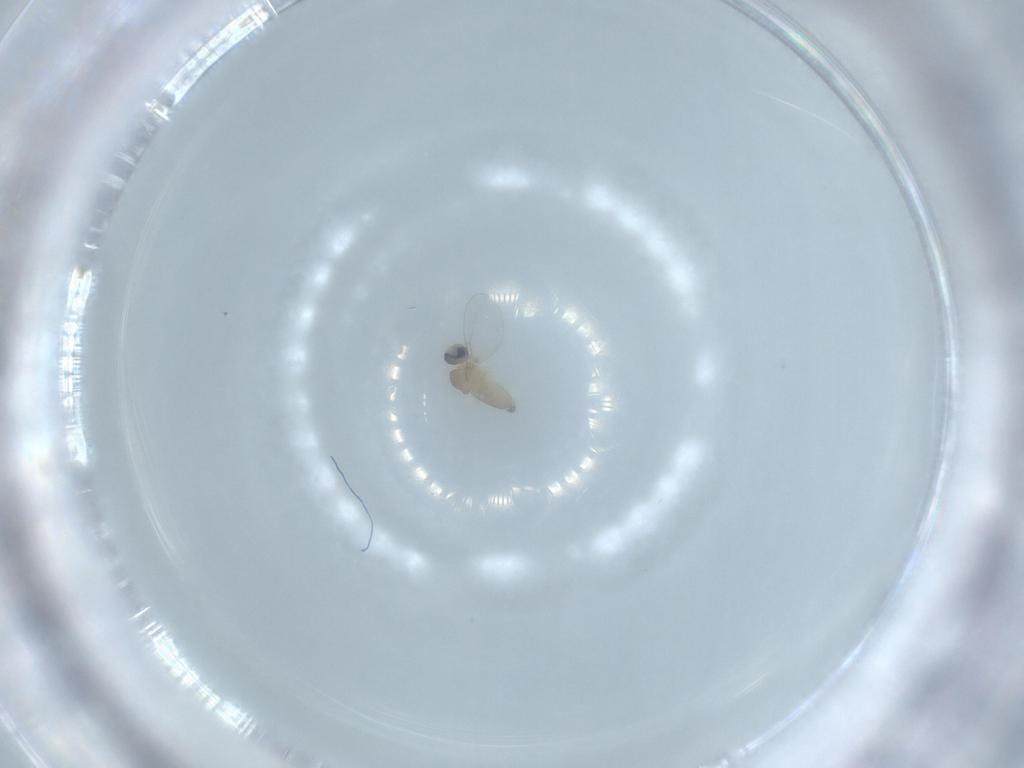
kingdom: Animalia
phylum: Arthropoda
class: Insecta
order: Diptera
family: Cecidomyiidae
